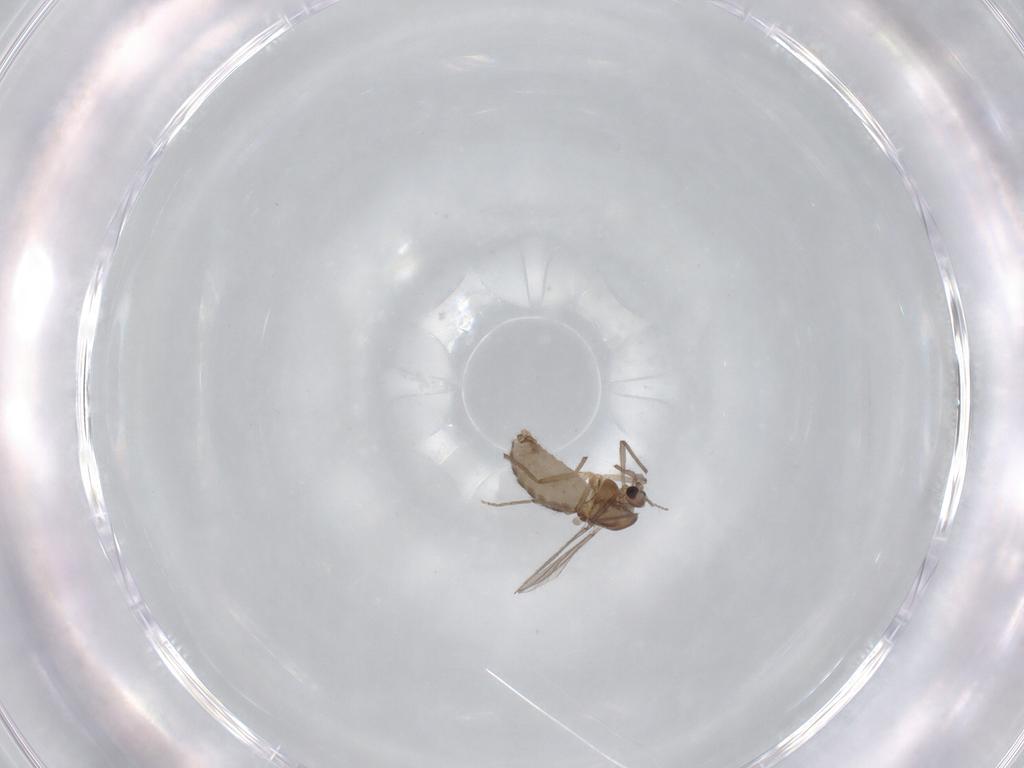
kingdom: Animalia
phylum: Arthropoda
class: Insecta
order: Diptera
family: Chironomidae
